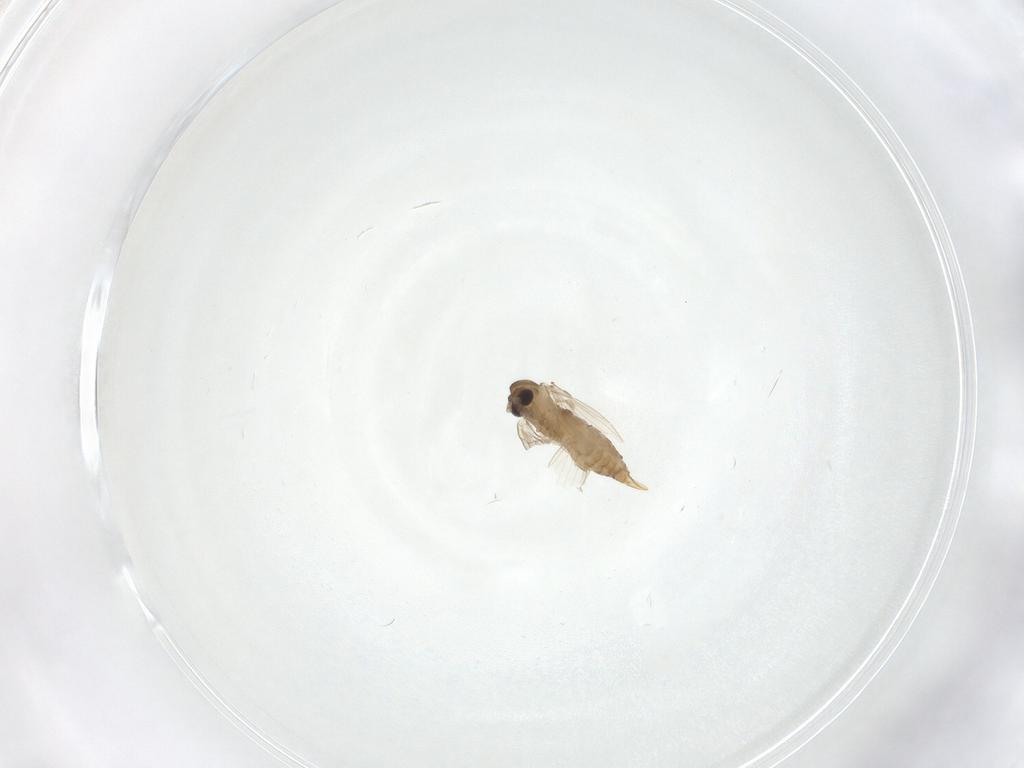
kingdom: Animalia
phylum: Arthropoda
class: Insecta
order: Diptera
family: Psychodidae
